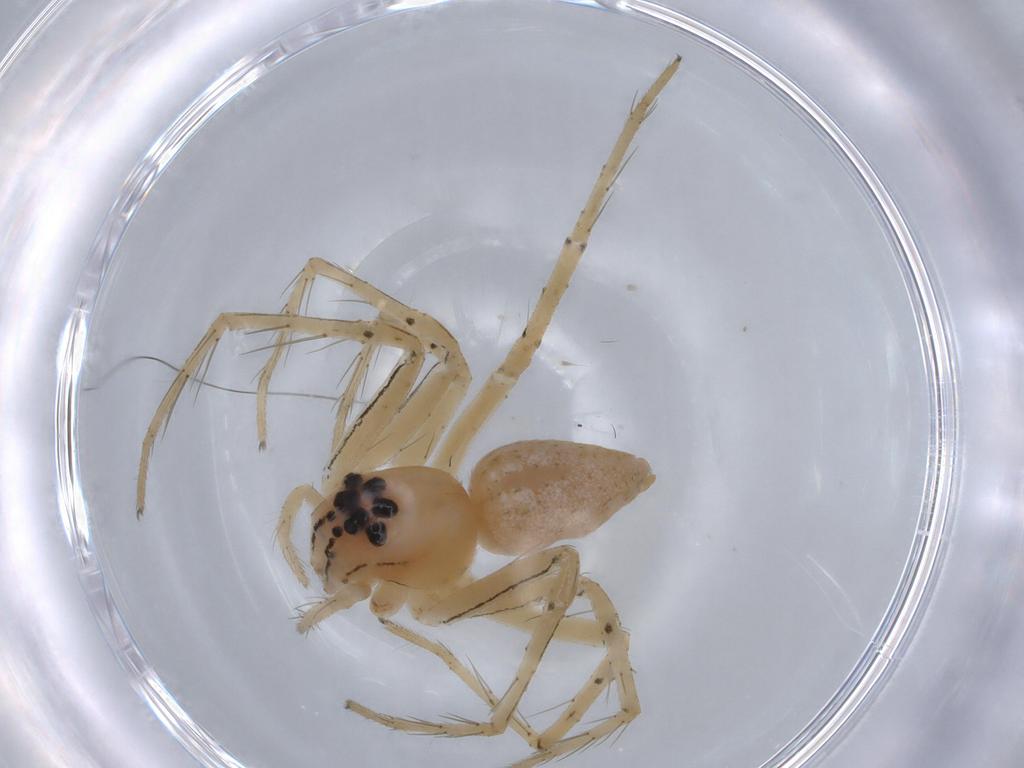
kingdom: Animalia
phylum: Arthropoda
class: Arachnida
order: Araneae
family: Oxyopidae
